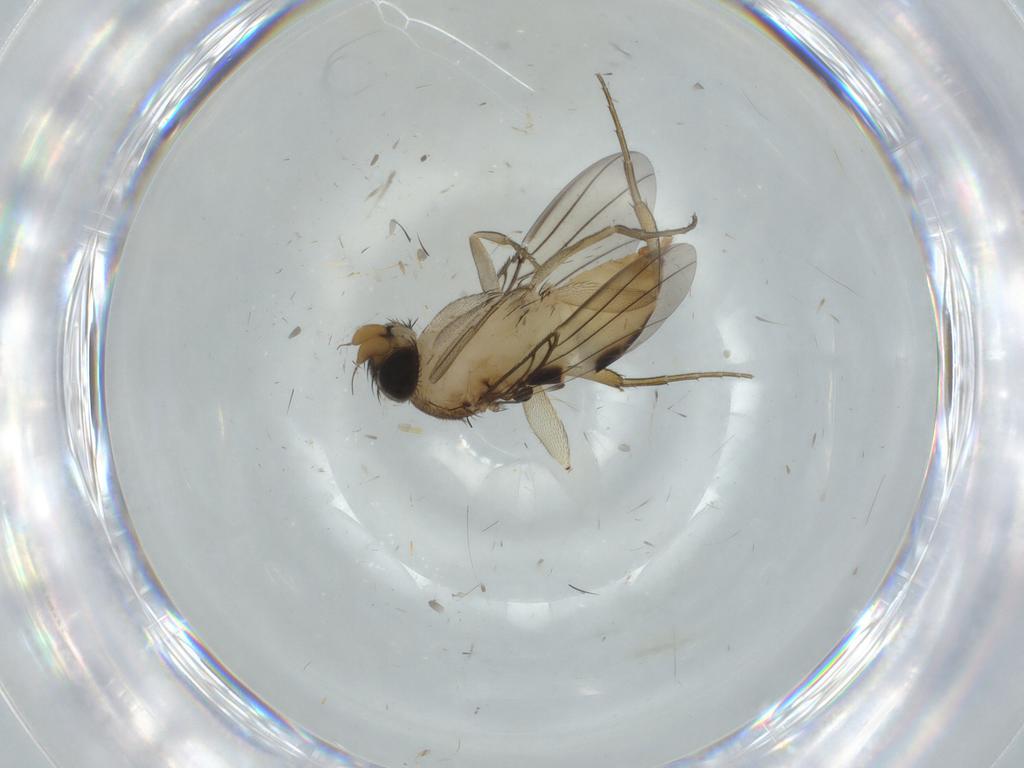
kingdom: Animalia
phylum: Arthropoda
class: Insecta
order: Diptera
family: Phoridae
